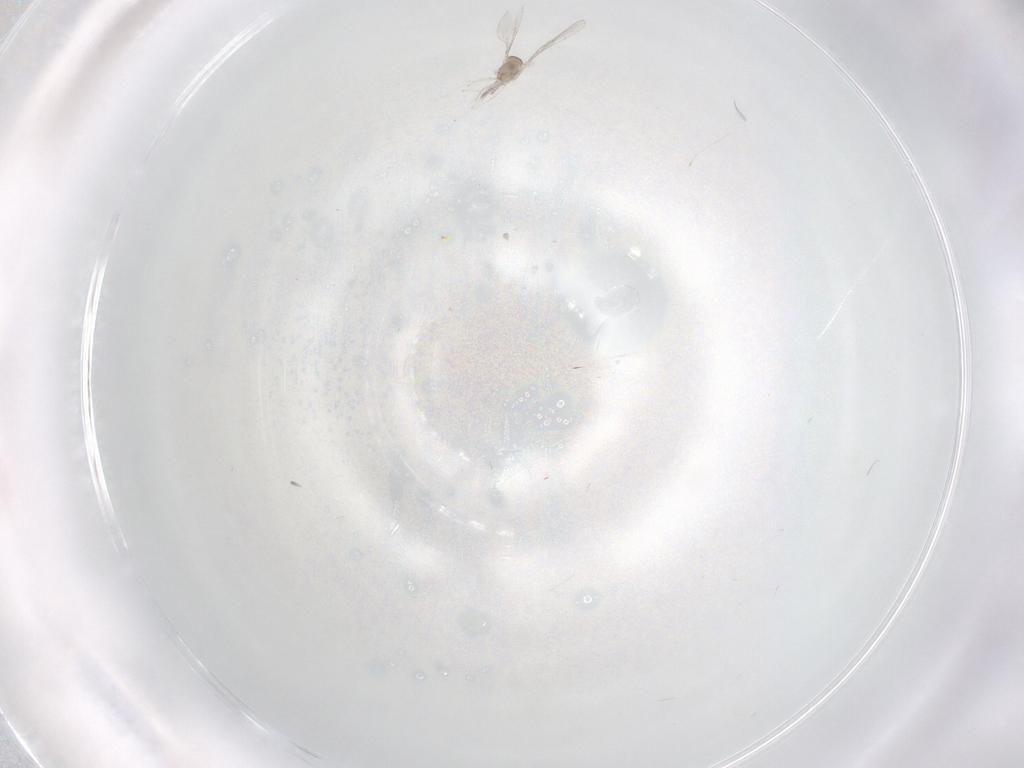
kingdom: Animalia
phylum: Arthropoda
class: Insecta
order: Diptera
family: Cecidomyiidae
